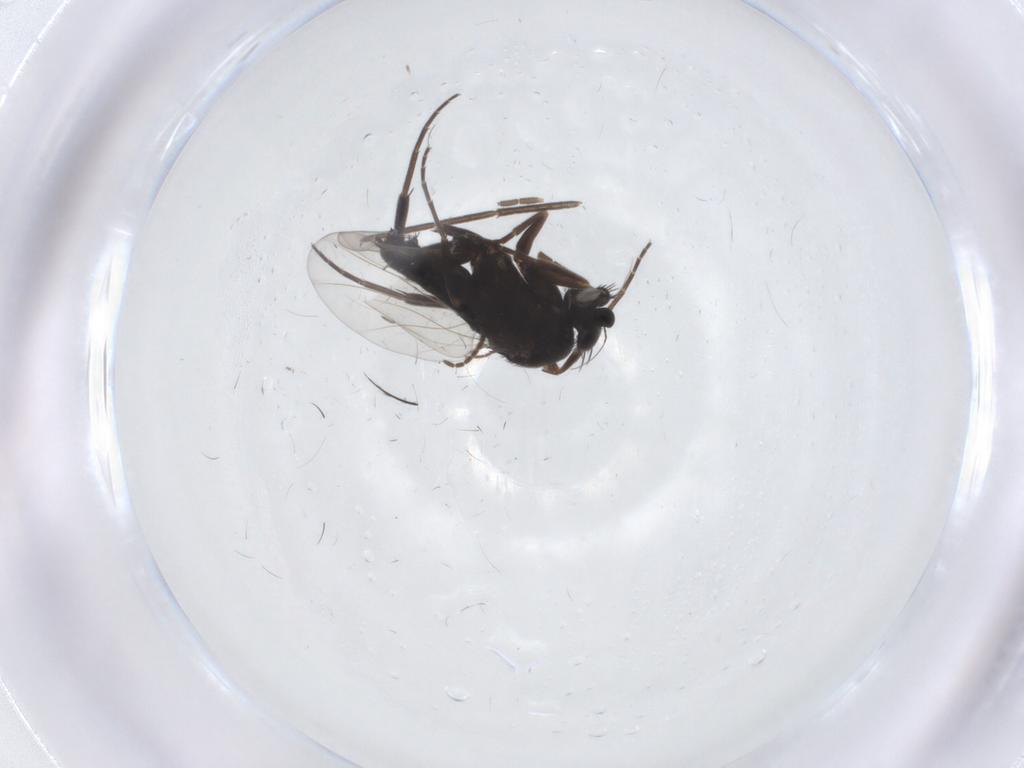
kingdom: Animalia
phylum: Arthropoda
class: Insecta
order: Diptera
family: Phoridae
